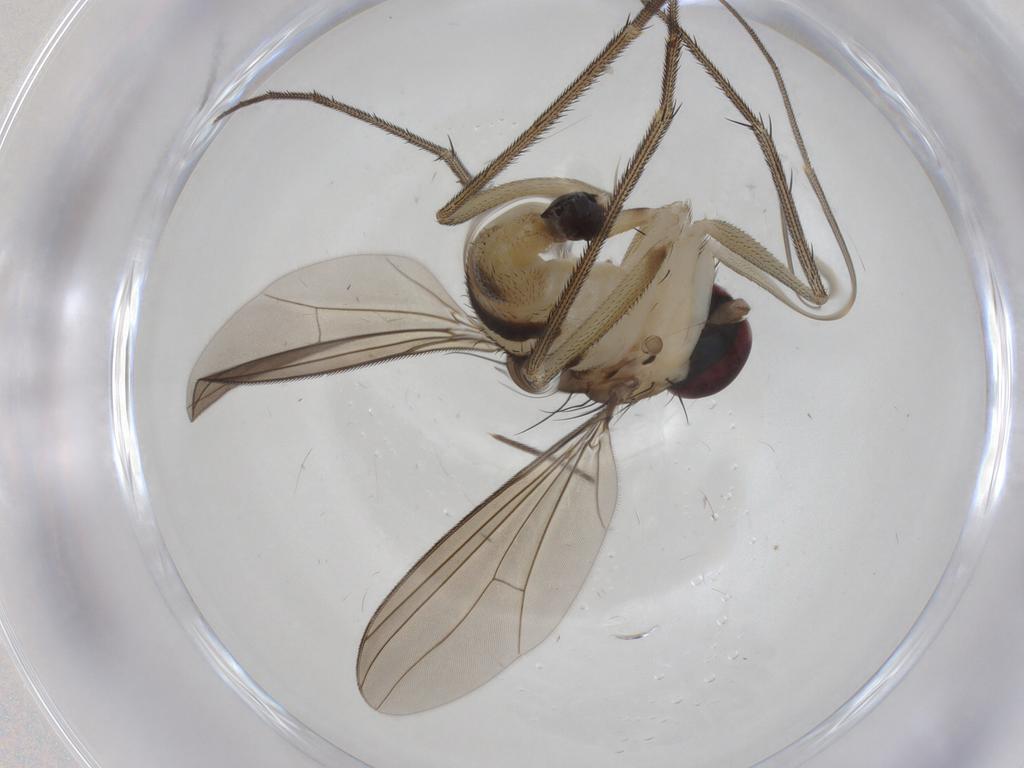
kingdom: Animalia
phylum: Arthropoda
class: Insecta
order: Diptera
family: Dolichopodidae
